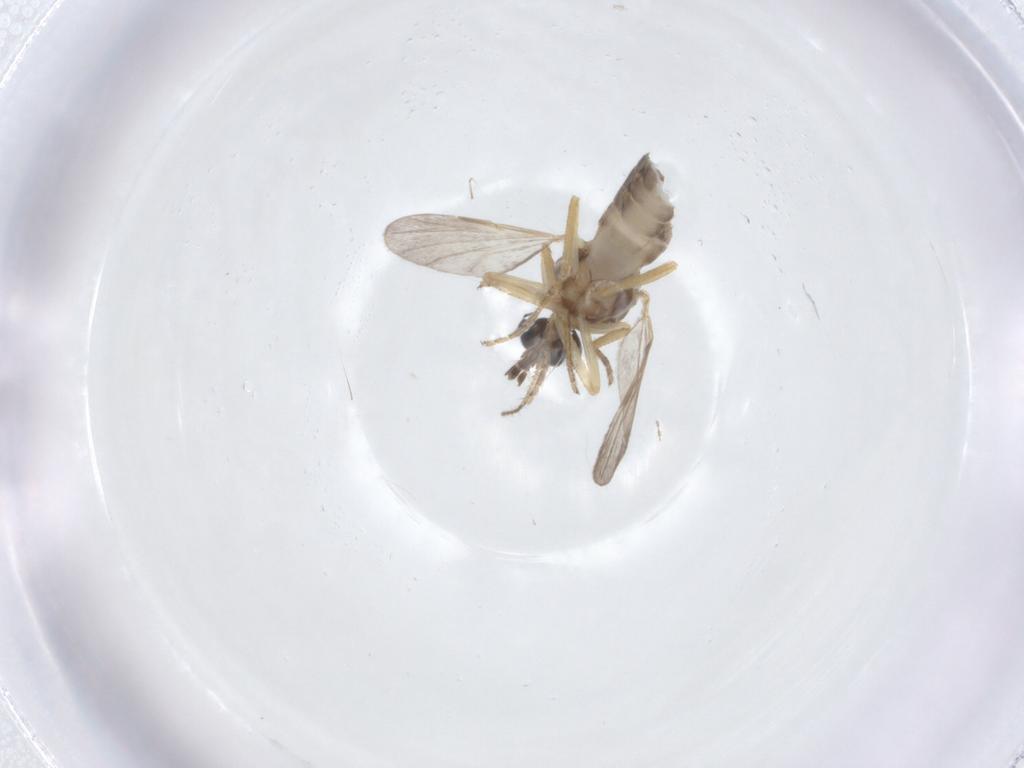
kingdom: Animalia
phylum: Arthropoda
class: Insecta
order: Diptera
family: Ceratopogonidae
